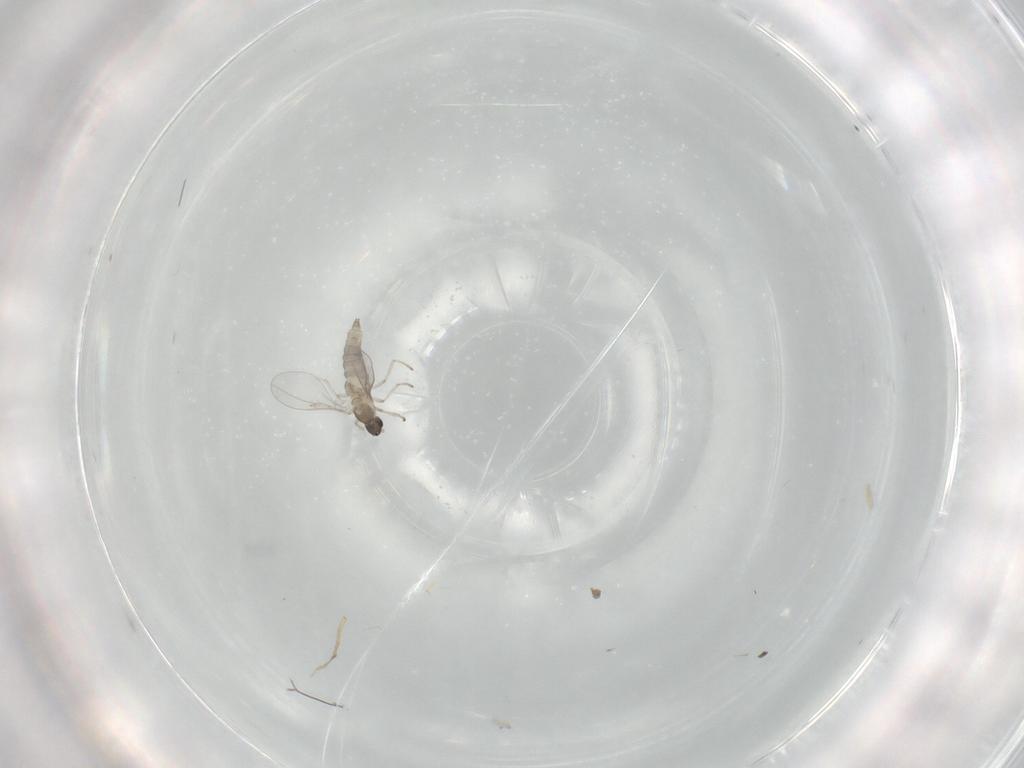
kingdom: Animalia
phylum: Arthropoda
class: Insecta
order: Diptera
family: Cecidomyiidae
